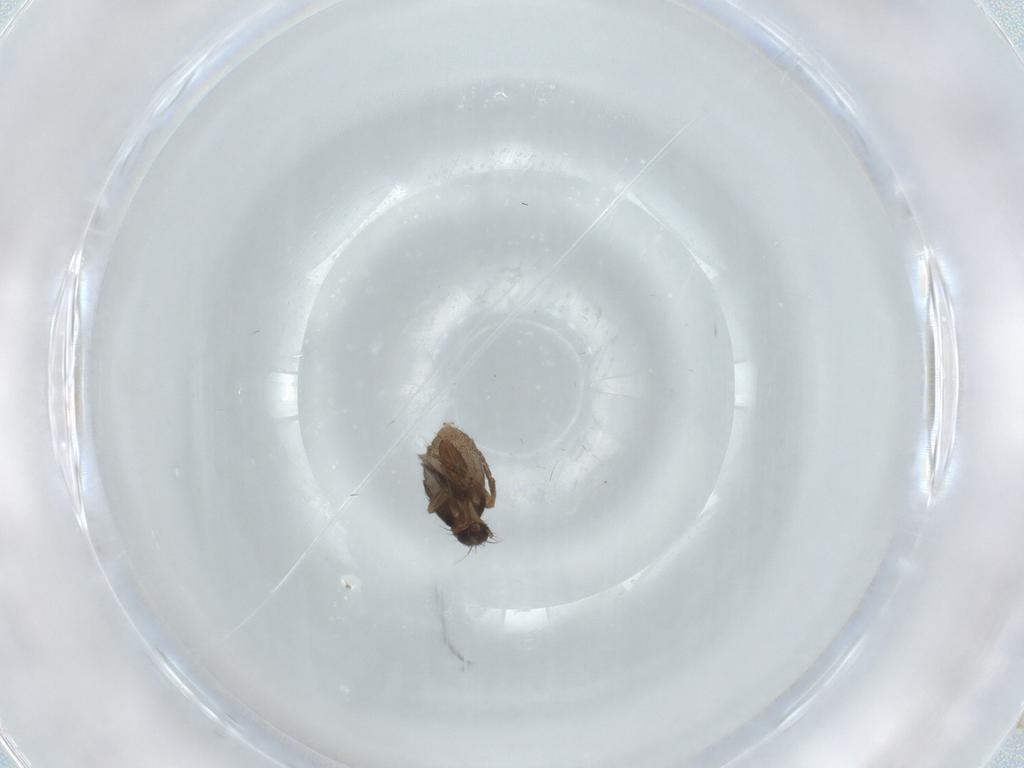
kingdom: Animalia
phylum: Arthropoda
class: Insecta
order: Diptera
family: Phoridae
